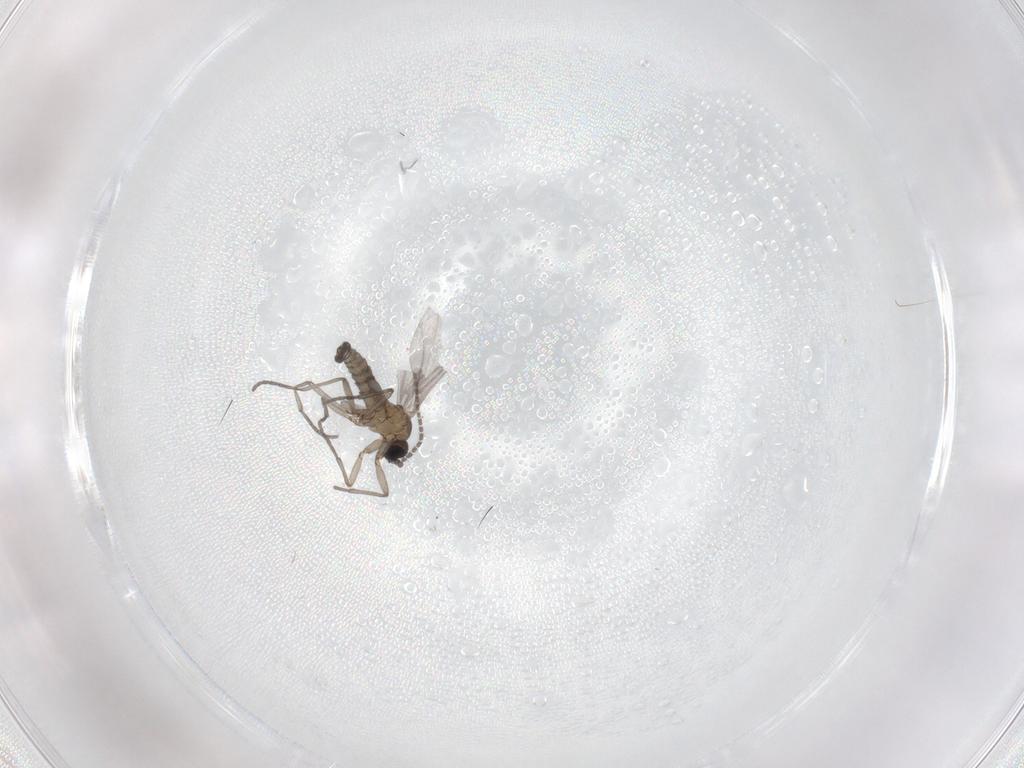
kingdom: Animalia
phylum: Arthropoda
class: Insecta
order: Diptera
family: Sciaridae
